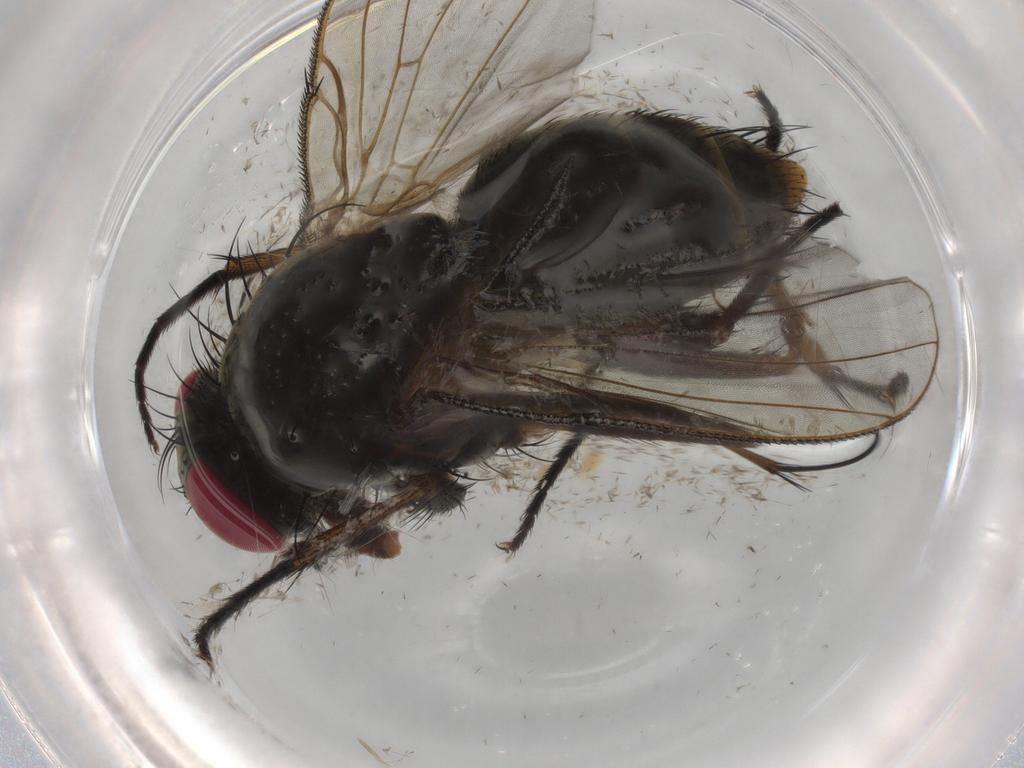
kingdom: Animalia
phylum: Arthropoda
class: Insecta
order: Diptera
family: Muscidae
